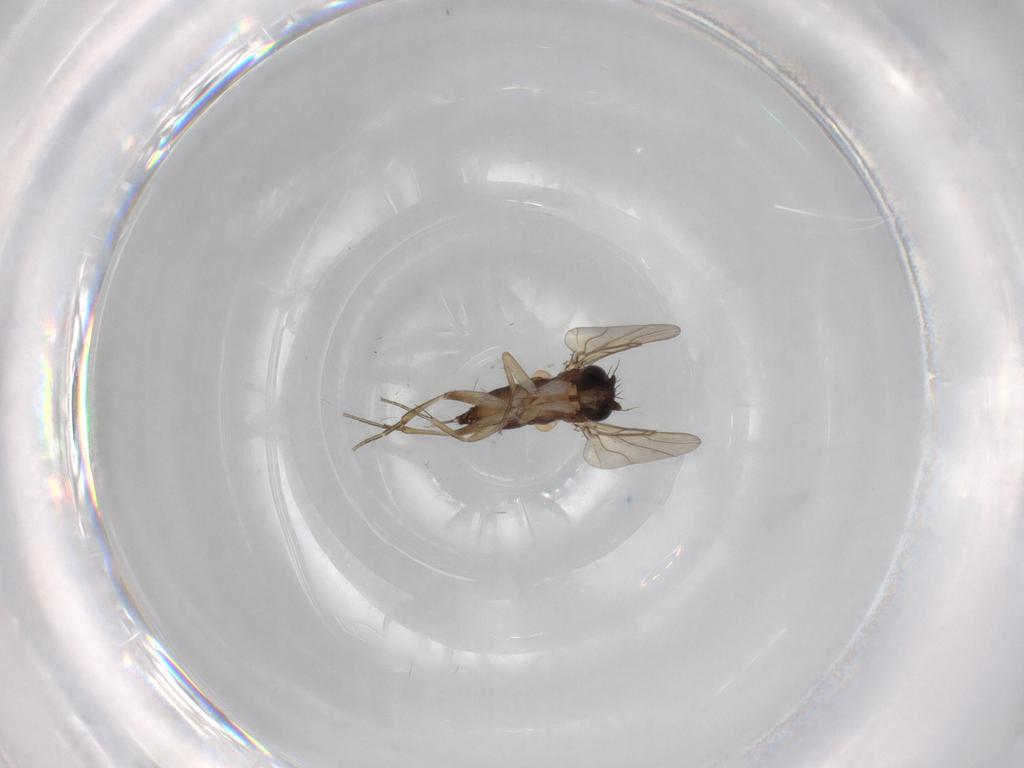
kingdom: Animalia
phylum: Arthropoda
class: Insecta
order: Diptera
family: Phoridae
